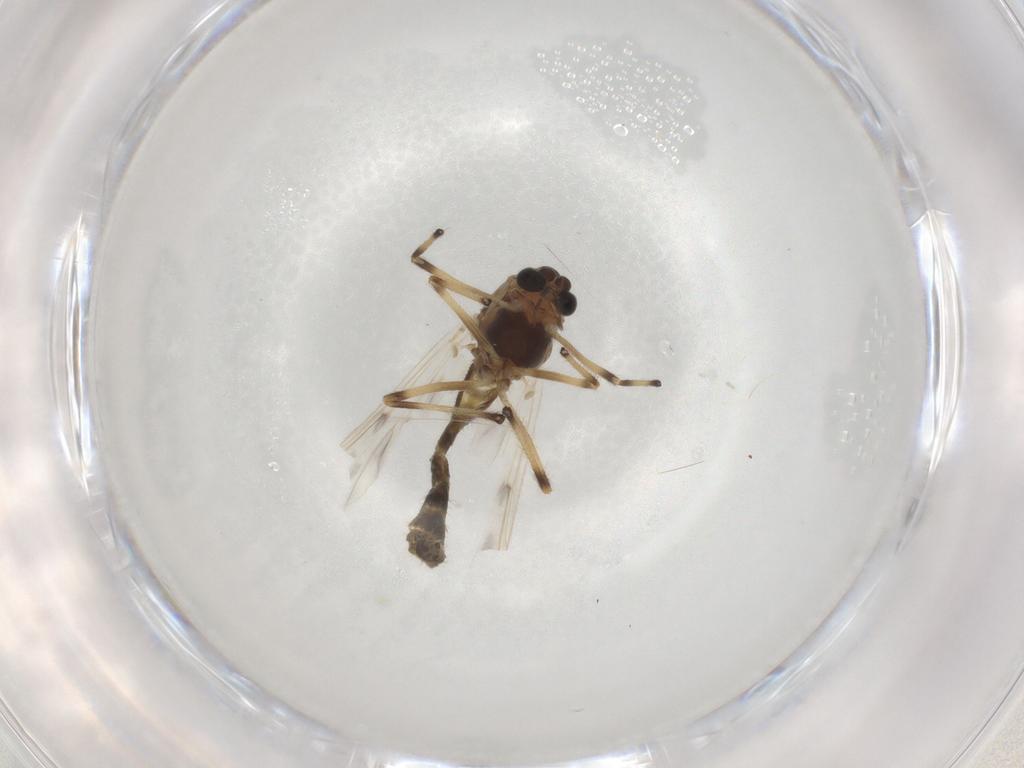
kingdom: Animalia
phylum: Arthropoda
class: Insecta
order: Diptera
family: Chironomidae
